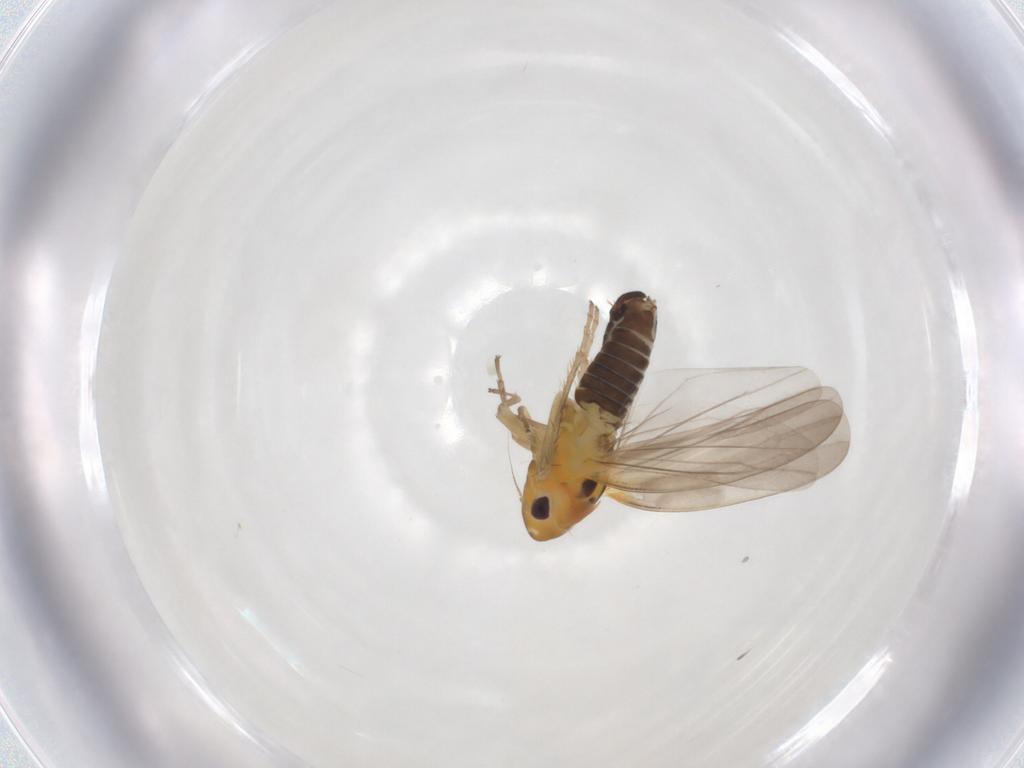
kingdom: Animalia
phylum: Arthropoda
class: Insecta
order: Hemiptera
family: Cicadellidae
